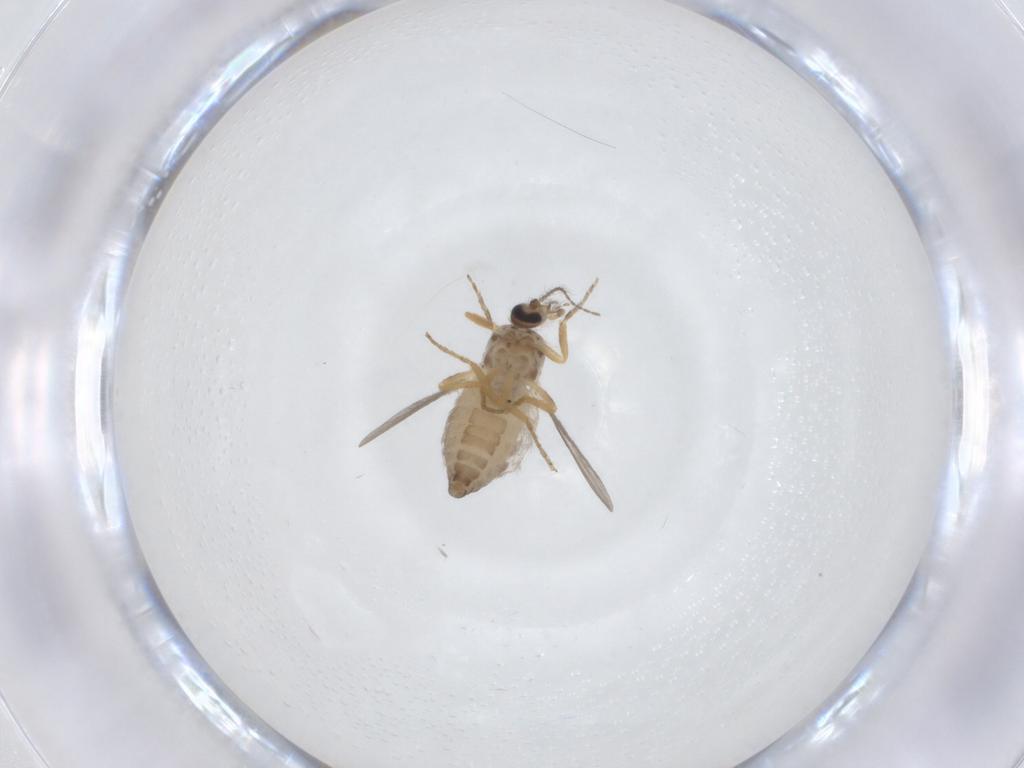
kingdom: Animalia
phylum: Arthropoda
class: Insecta
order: Diptera
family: Ceratopogonidae
